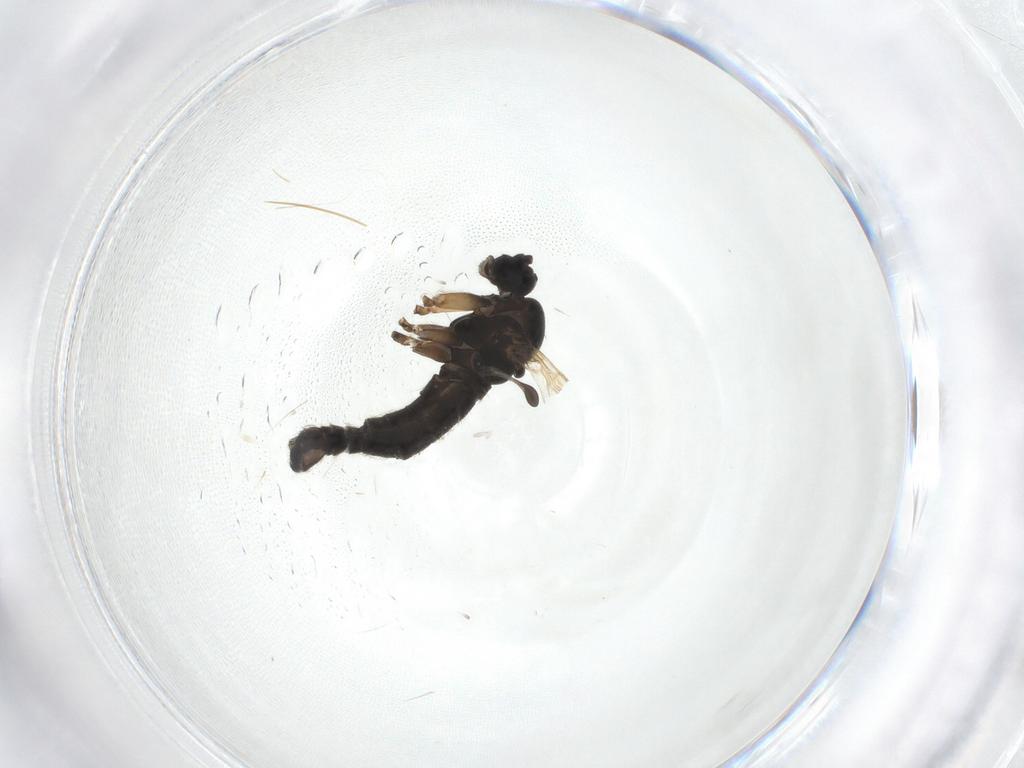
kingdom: Animalia
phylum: Arthropoda
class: Insecta
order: Diptera
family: Sciaridae
